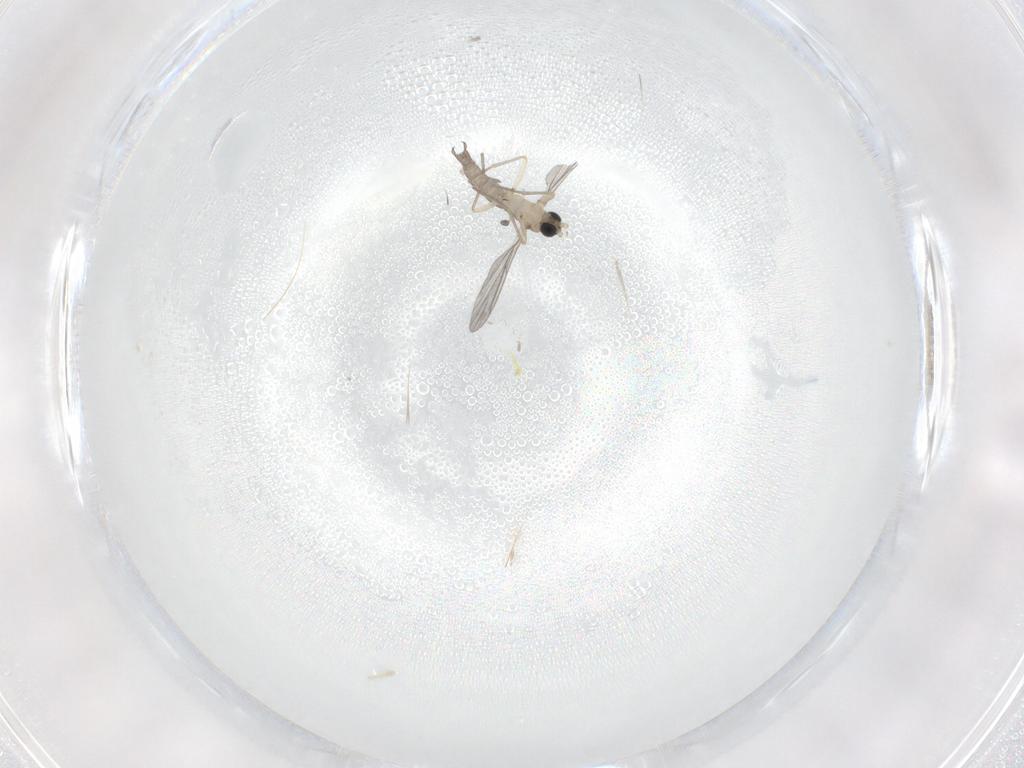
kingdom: Animalia
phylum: Arthropoda
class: Insecta
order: Diptera
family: Sciaridae
